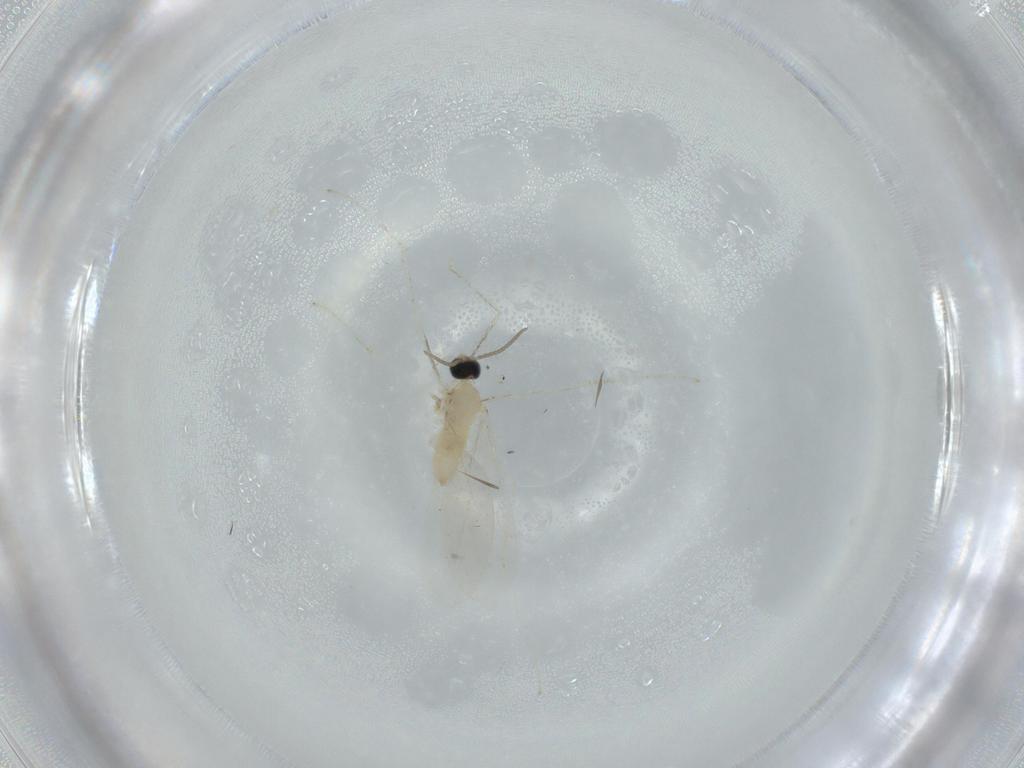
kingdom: Animalia
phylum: Arthropoda
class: Insecta
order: Diptera
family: Cecidomyiidae
